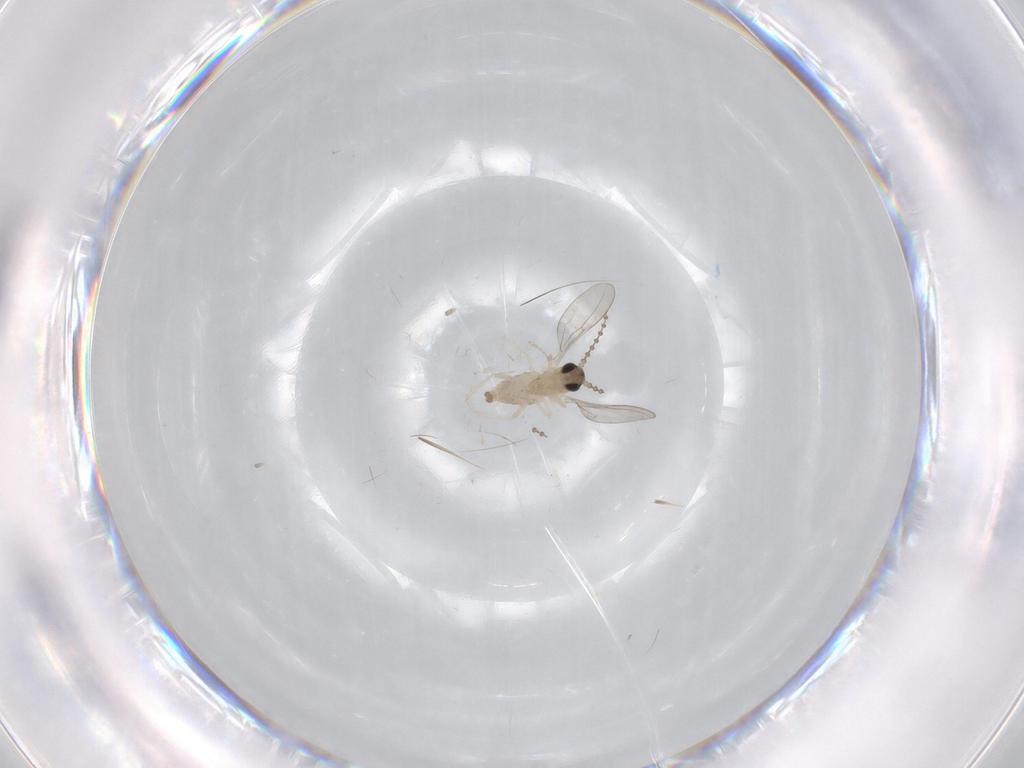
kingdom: Animalia
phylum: Arthropoda
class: Insecta
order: Diptera
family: Cecidomyiidae
